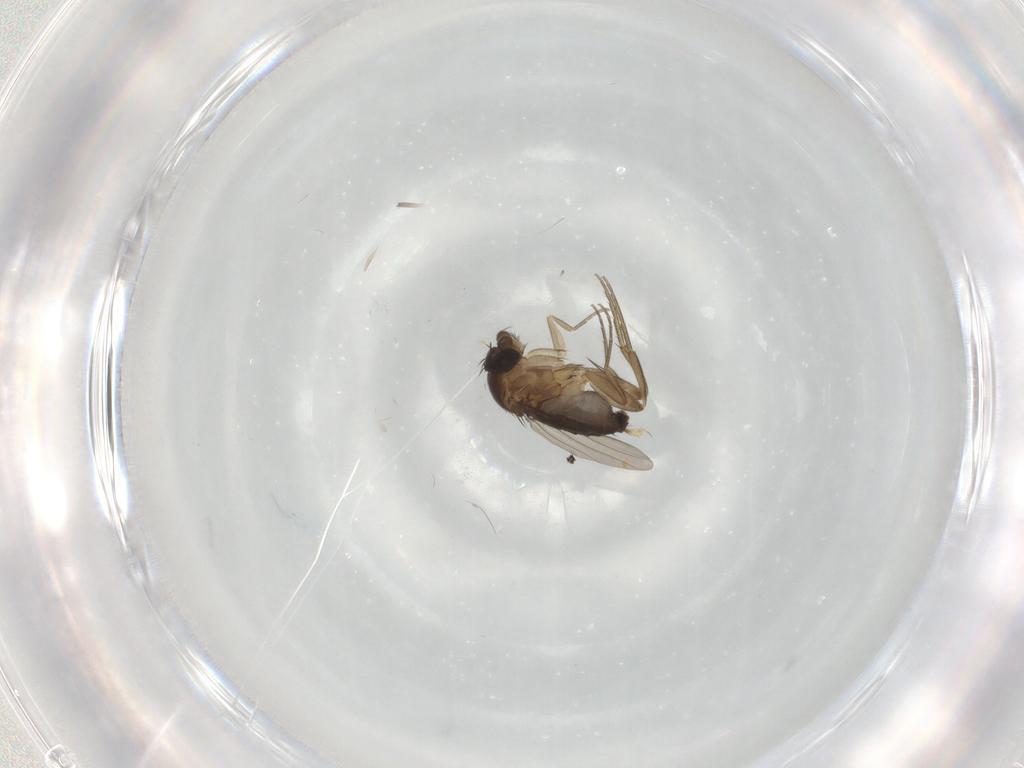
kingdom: Animalia
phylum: Arthropoda
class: Insecta
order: Diptera
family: Phoridae
